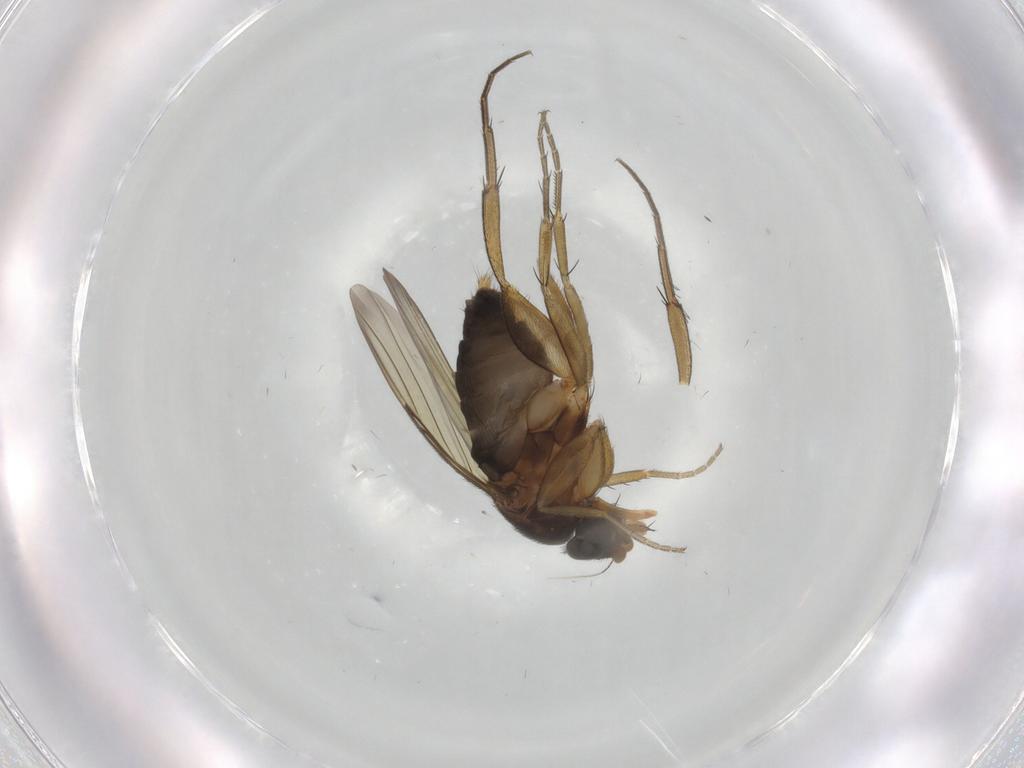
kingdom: Animalia
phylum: Arthropoda
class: Insecta
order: Diptera
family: Phoridae
